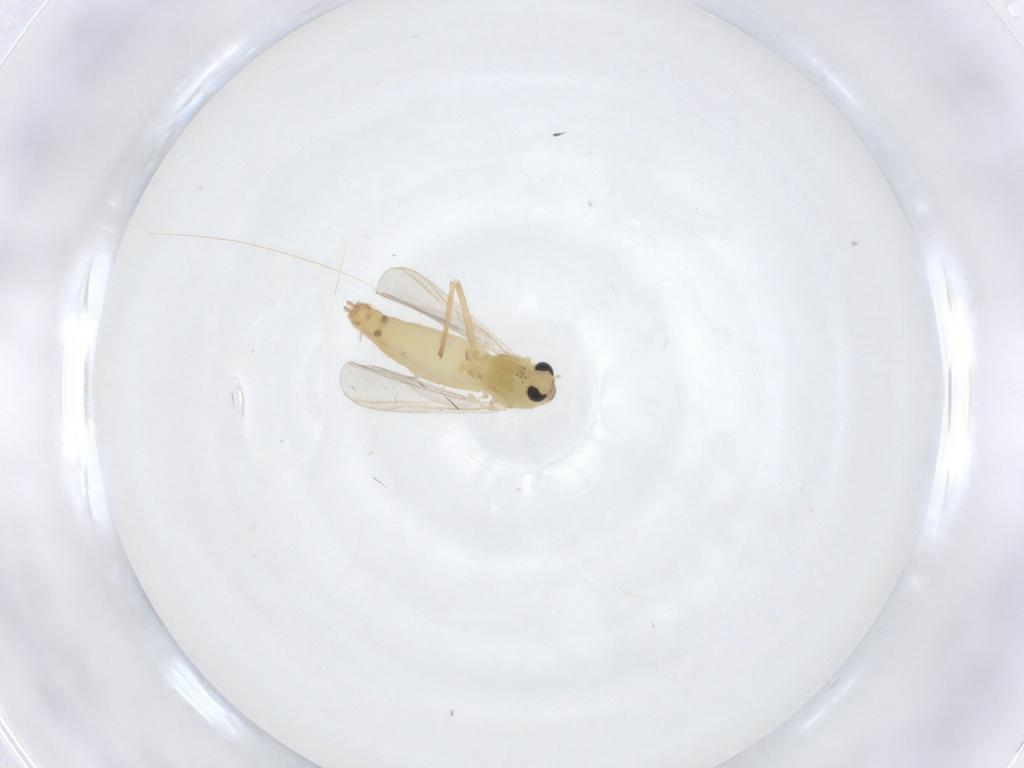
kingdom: Animalia
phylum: Arthropoda
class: Insecta
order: Diptera
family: Chironomidae
